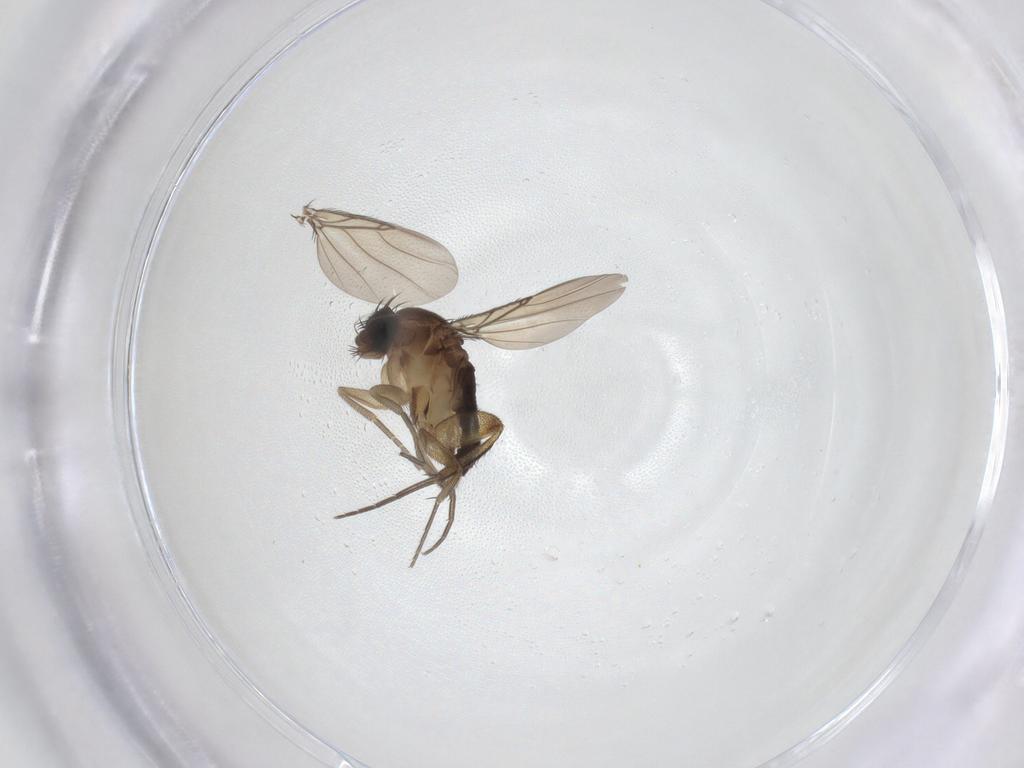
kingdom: Animalia
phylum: Arthropoda
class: Insecta
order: Diptera
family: Phoridae
